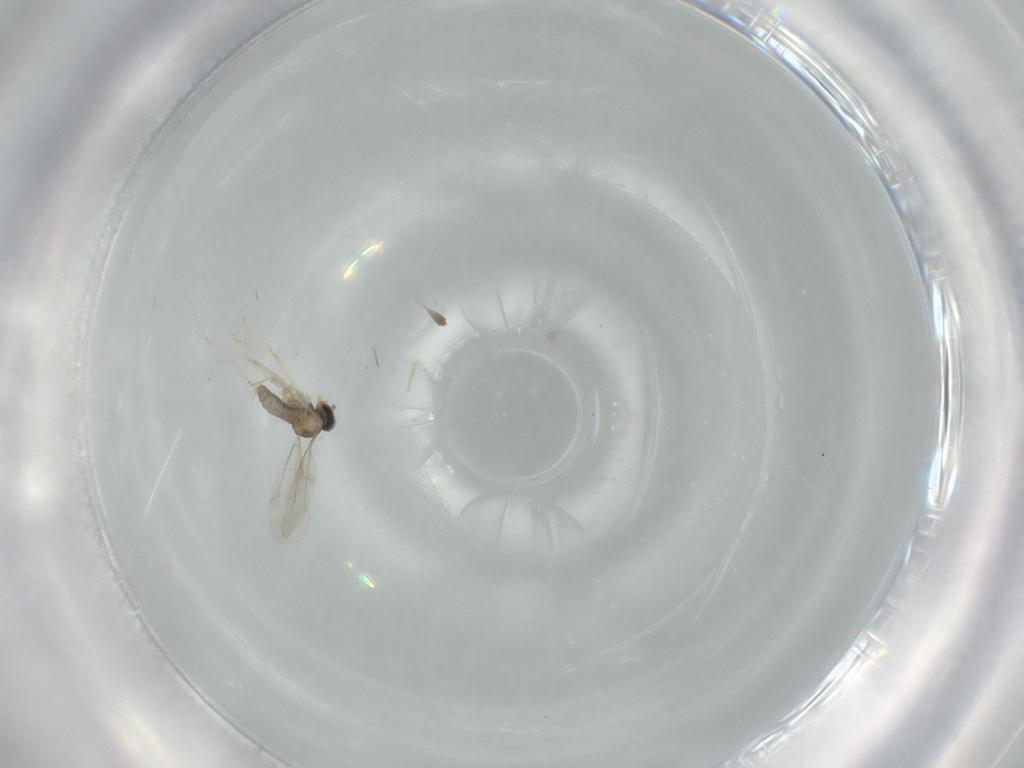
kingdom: Animalia
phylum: Arthropoda
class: Insecta
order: Diptera
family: Cecidomyiidae
